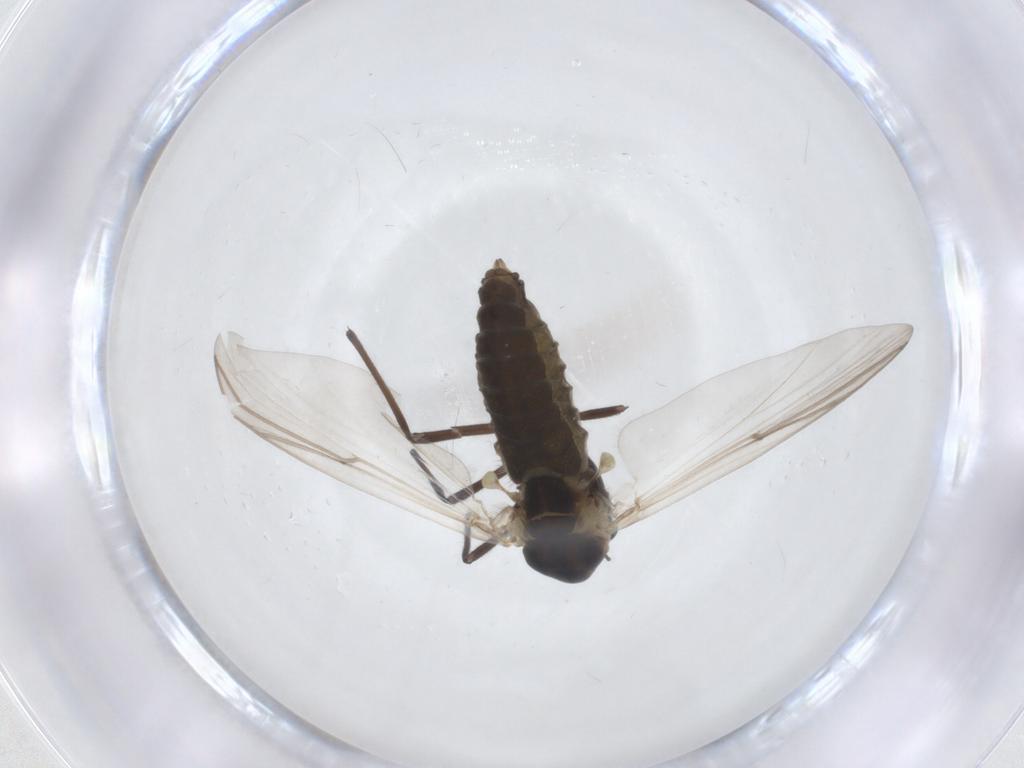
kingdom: Animalia
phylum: Arthropoda
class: Insecta
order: Diptera
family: Chironomidae
